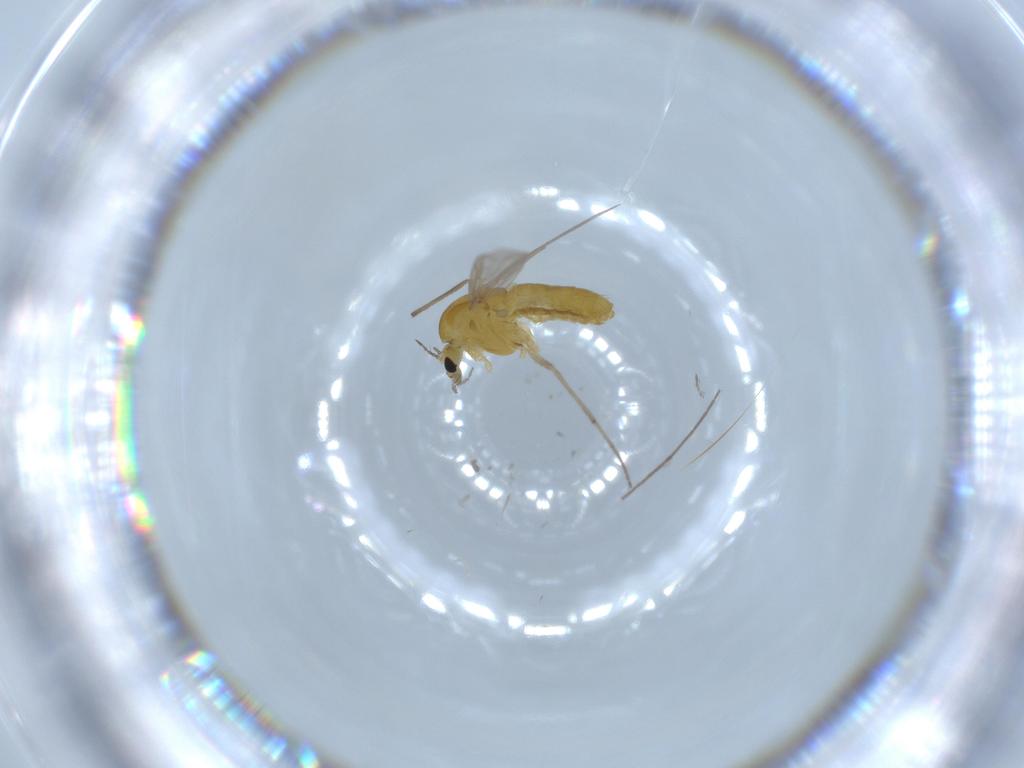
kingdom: Animalia
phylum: Arthropoda
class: Insecta
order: Diptera
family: Chironomidae
